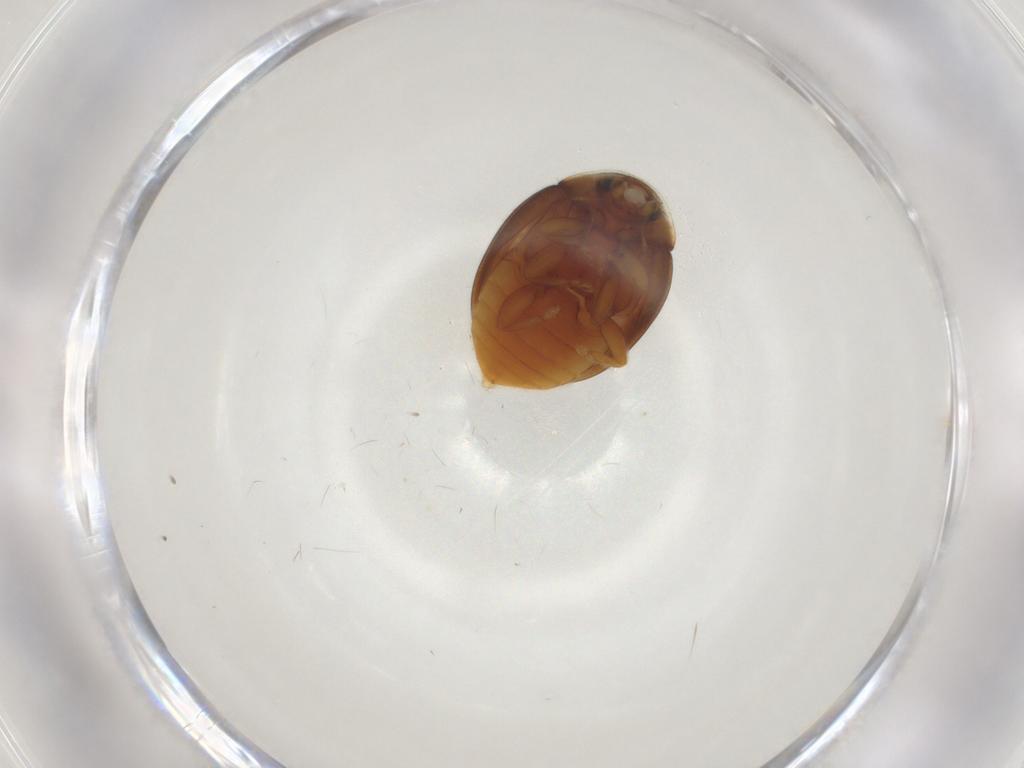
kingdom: Animalia
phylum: Arthropoda
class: Insecta
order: Coleoptera
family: Coccinellidae
